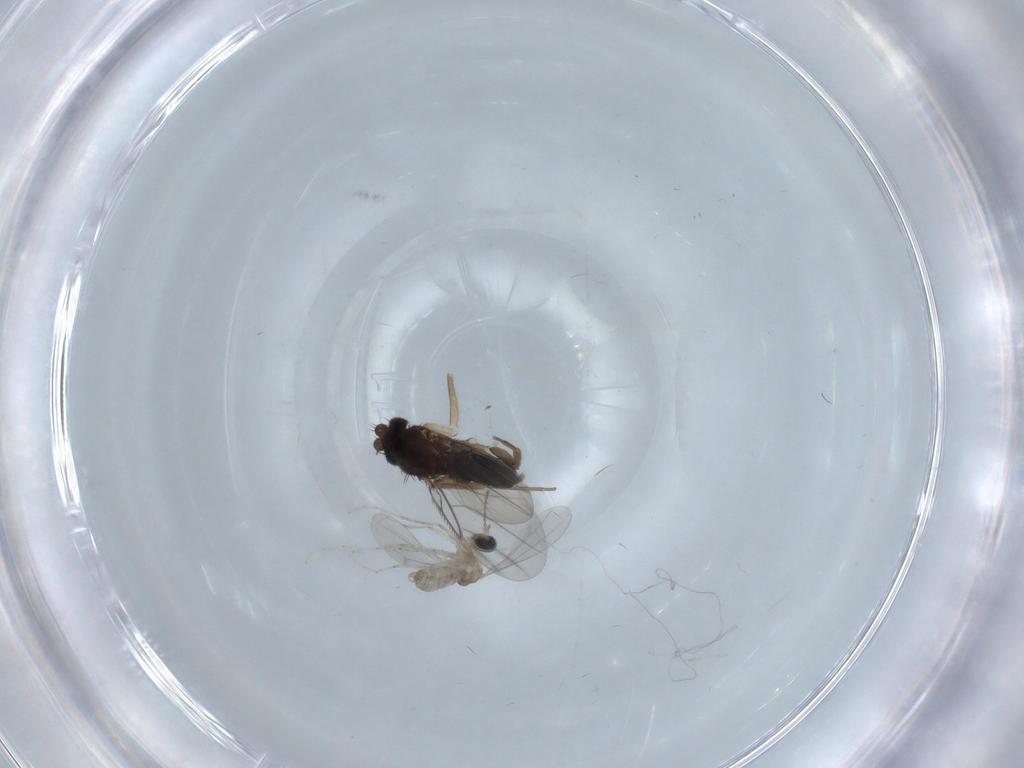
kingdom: Animalia
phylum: Arthropoda
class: Insecta
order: Diptera
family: Phoridae
